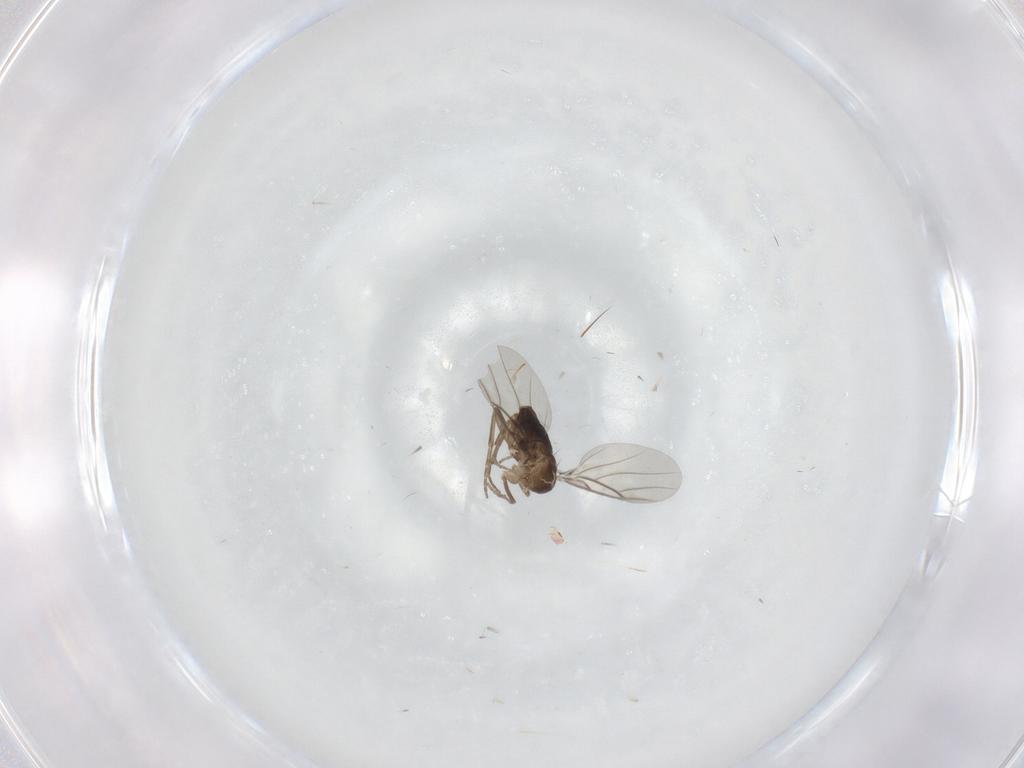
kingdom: Animalia
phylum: Arthropoda
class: Insecta
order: Diptera
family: Phoridae
